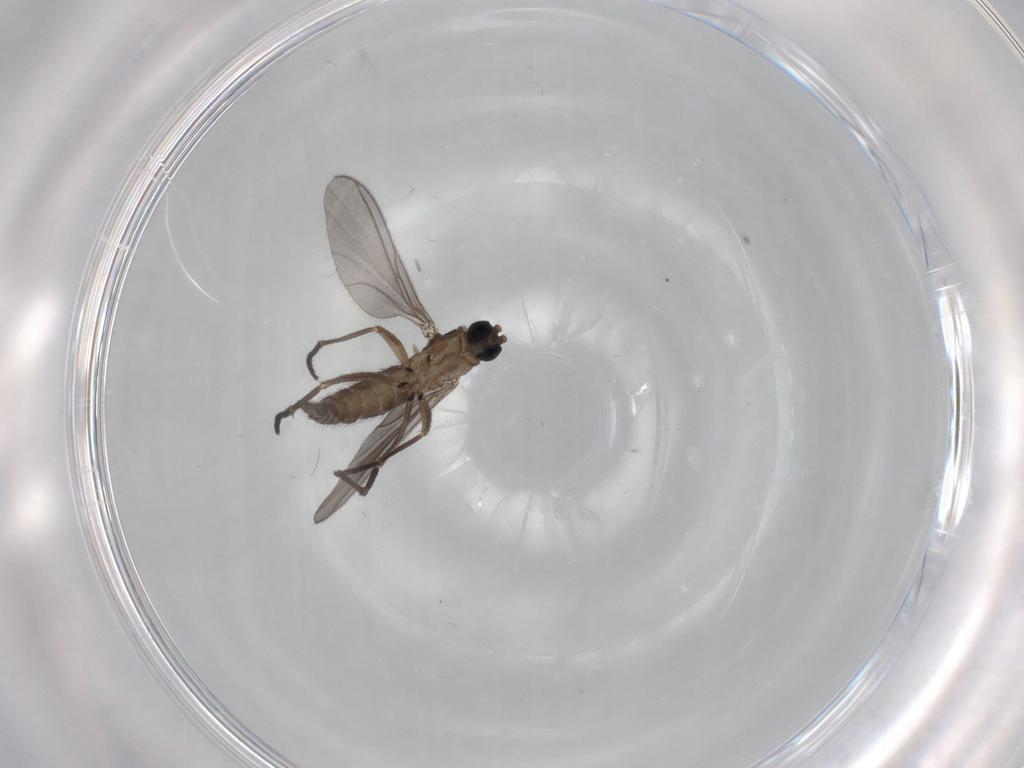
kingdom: Animalia
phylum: Arthropoda
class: Insecta
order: Diptera
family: Sciaridae
